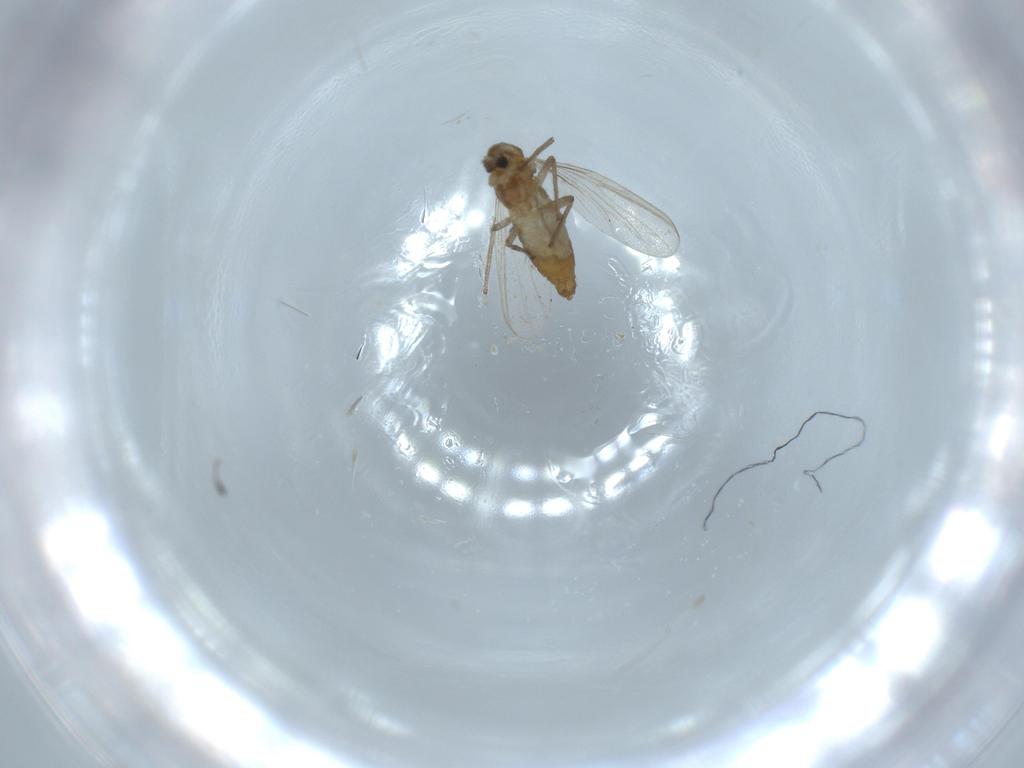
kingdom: Animalia
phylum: Arthropoda
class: Insecta
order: Diptera
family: Chironomidae
